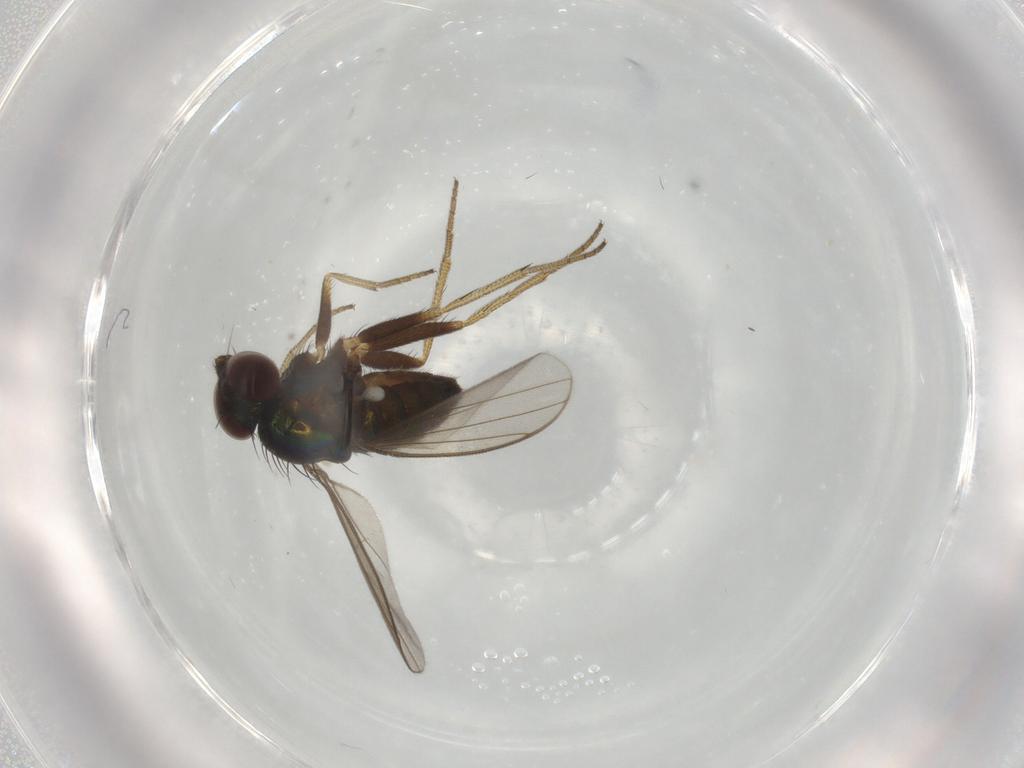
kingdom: Animalia
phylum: Arthropoda
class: Insecta
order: Diptera
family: Dolichopodidae
